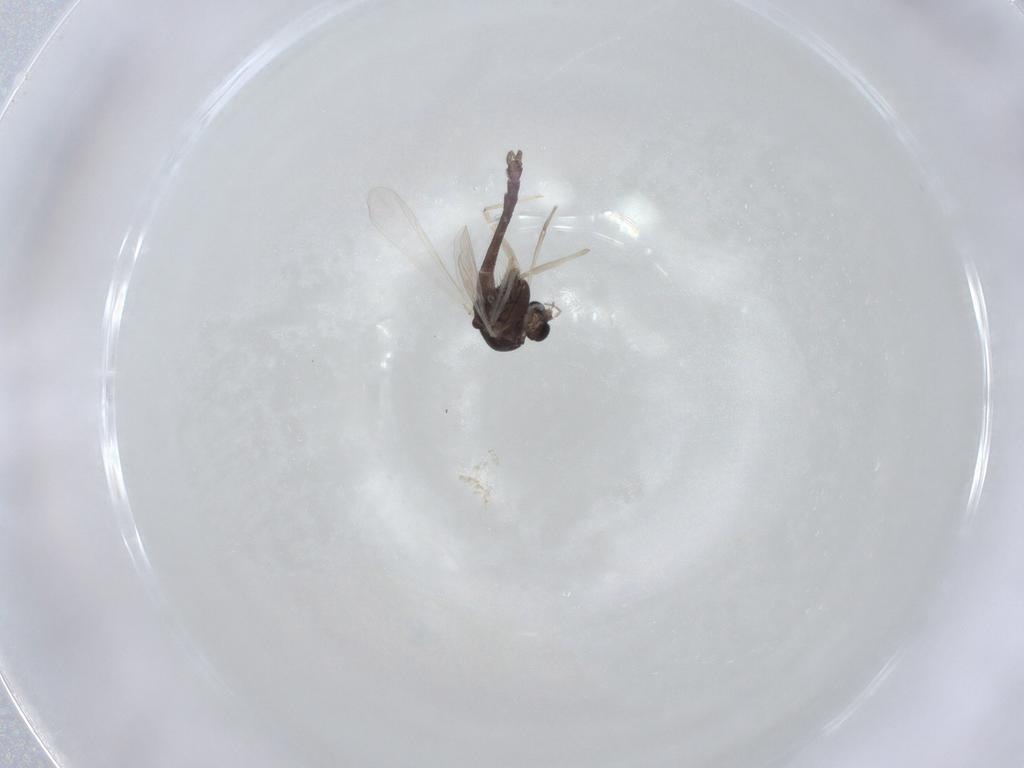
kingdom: Animalia
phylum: Arthropoda
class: Insecta
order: Diptera
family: Chironomidae
